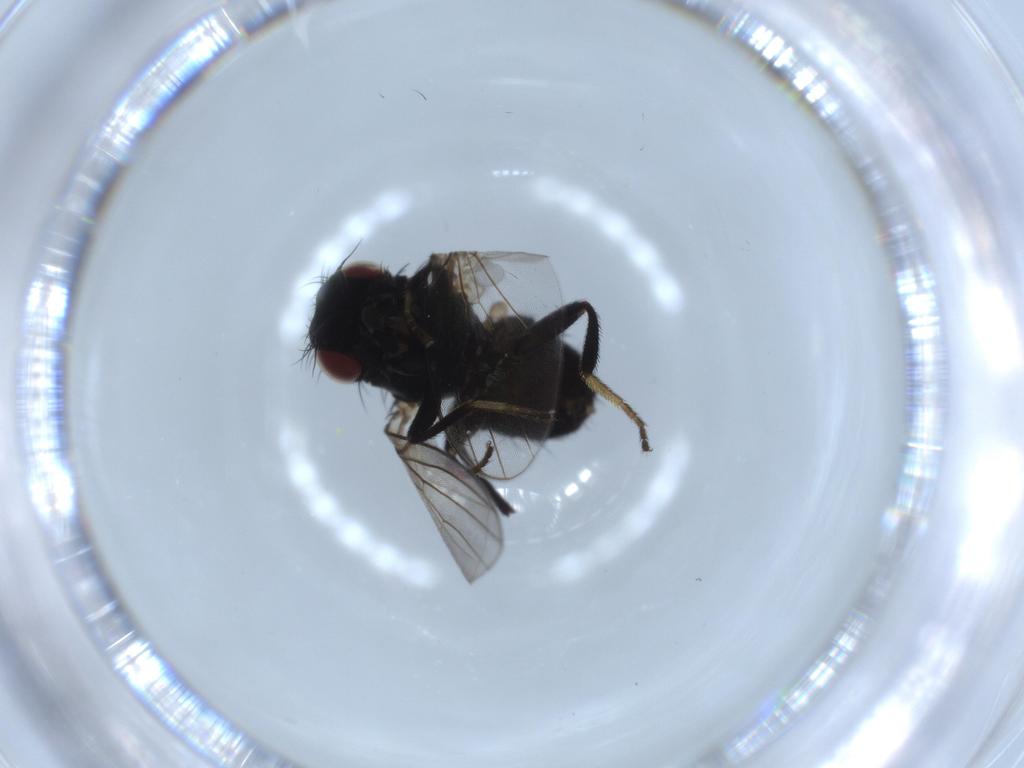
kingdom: Animalia
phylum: Arthropoda
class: Insecta
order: Diptera
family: Milichiidae
